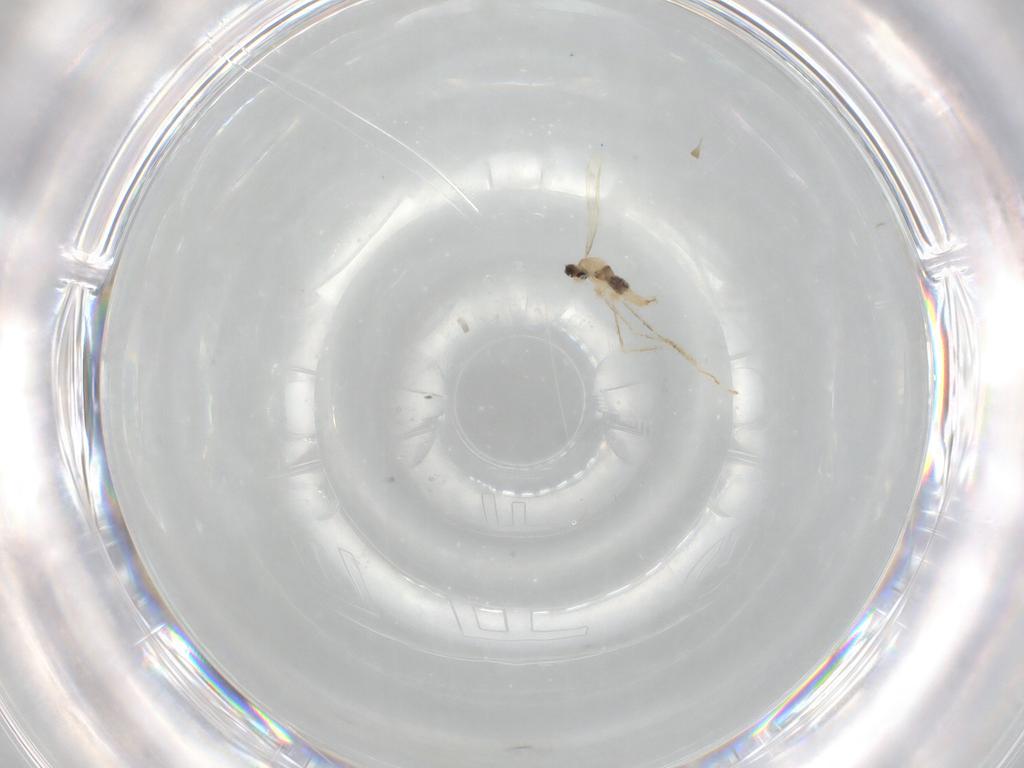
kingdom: Animalia
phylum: Arthropoda
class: Insecta
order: Diptera
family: Cecidomyiidae
